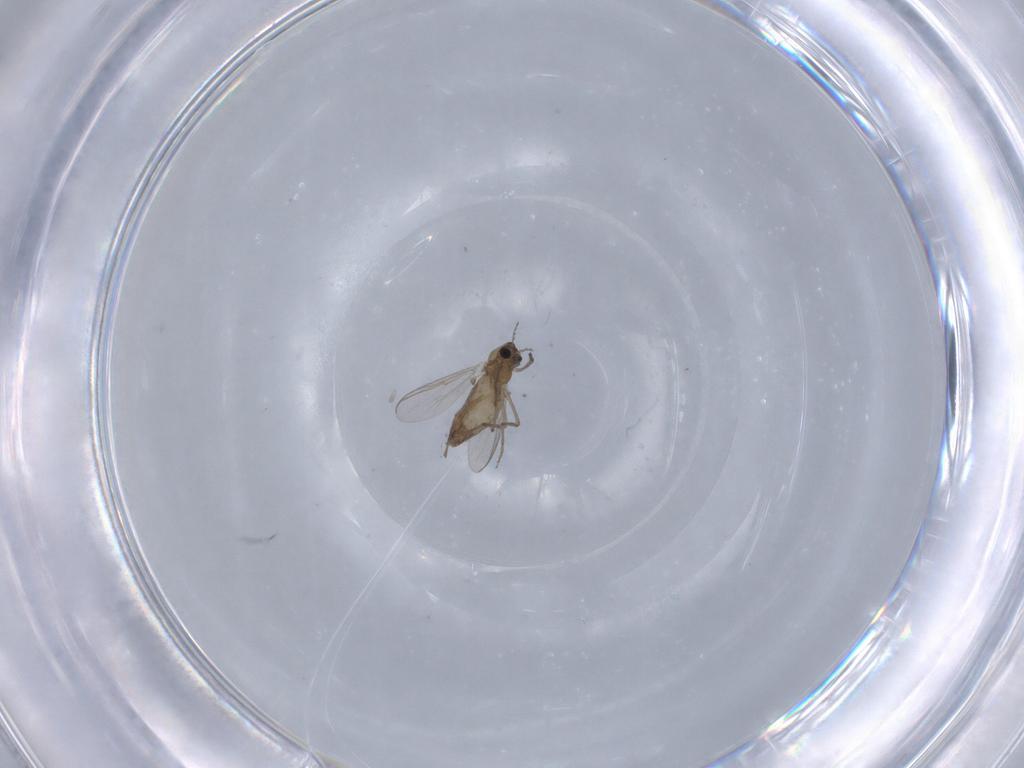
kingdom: Animalia
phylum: Arthropoda
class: Insecta
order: Diptera
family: Chironomidae
